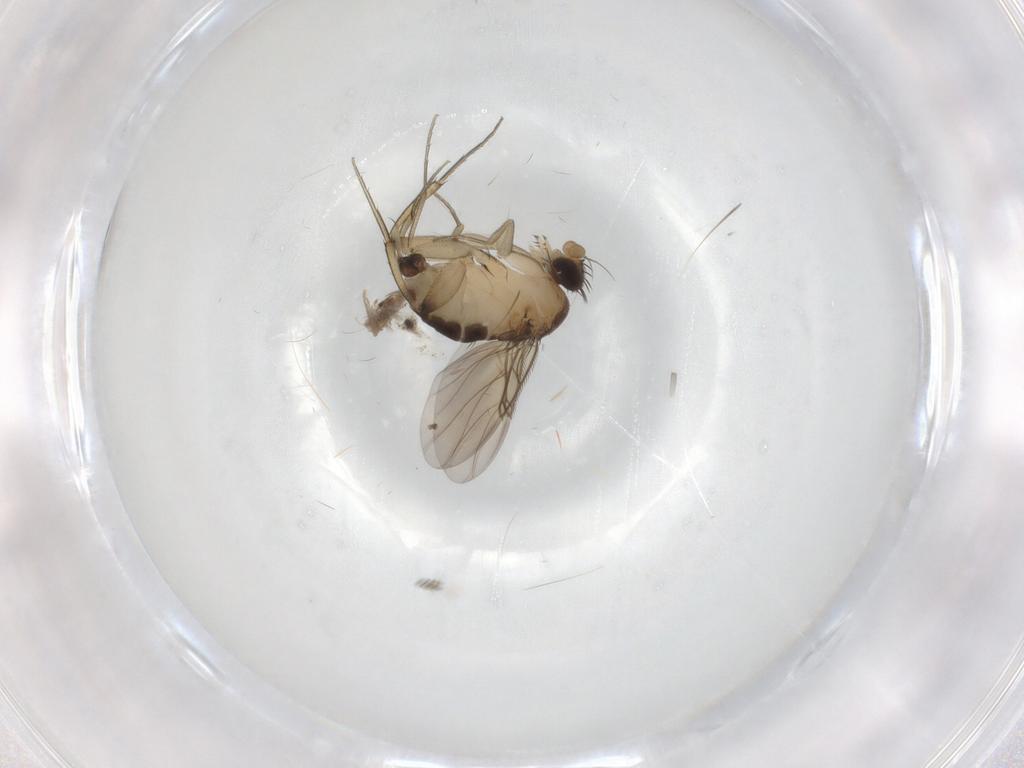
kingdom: Animalia
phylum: Arthropoda
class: Insecta
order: Diptera
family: Phoridae
